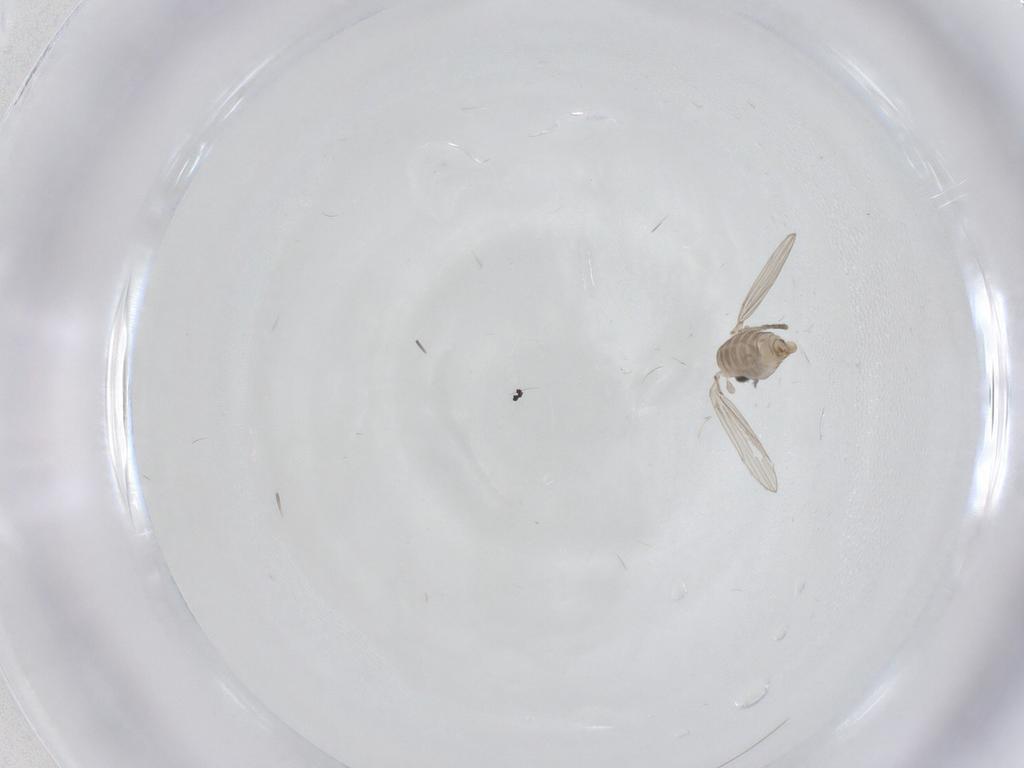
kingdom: Animalia
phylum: Arthropoda
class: Insecta
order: Diptera
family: Psychodidae
